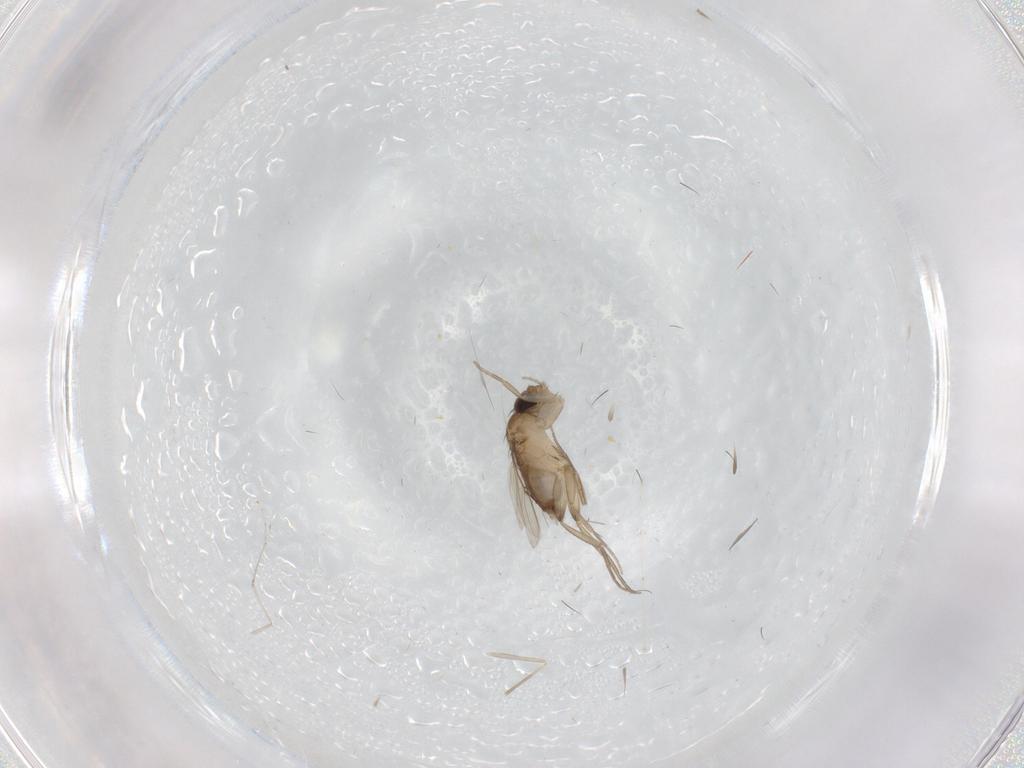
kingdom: Animalia
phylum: Arthropoda
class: Insecta
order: Diptera
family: Phoridae
